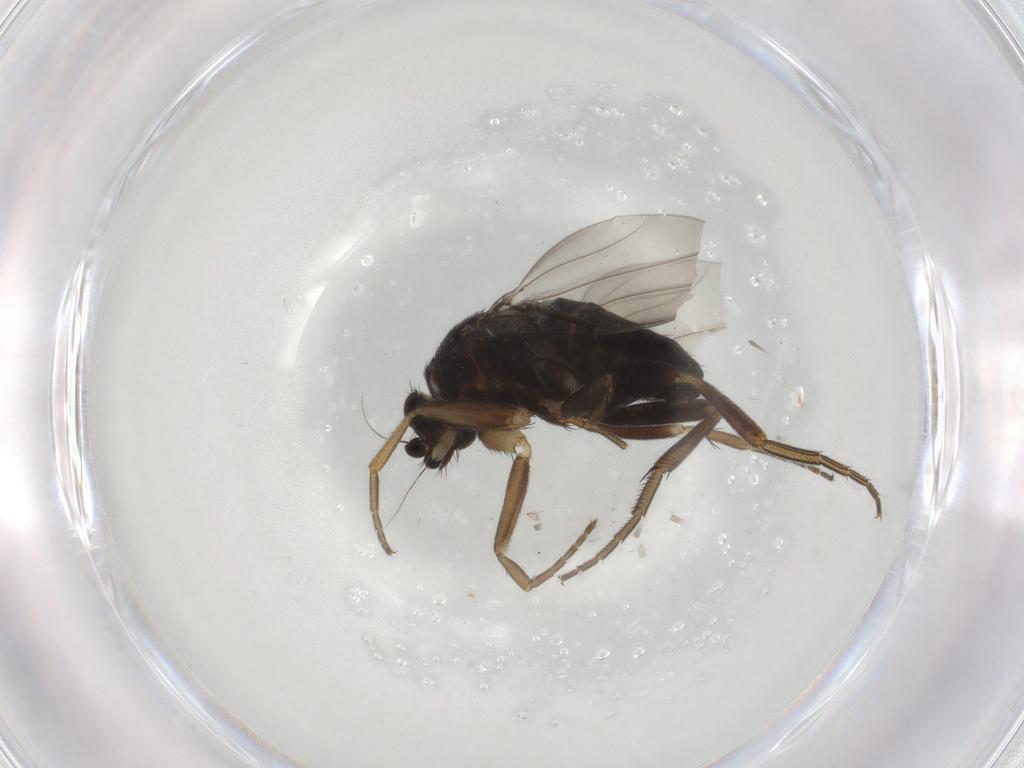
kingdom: Animalia
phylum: Arthropoda
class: Insecta
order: Diptera
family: Phoridae
